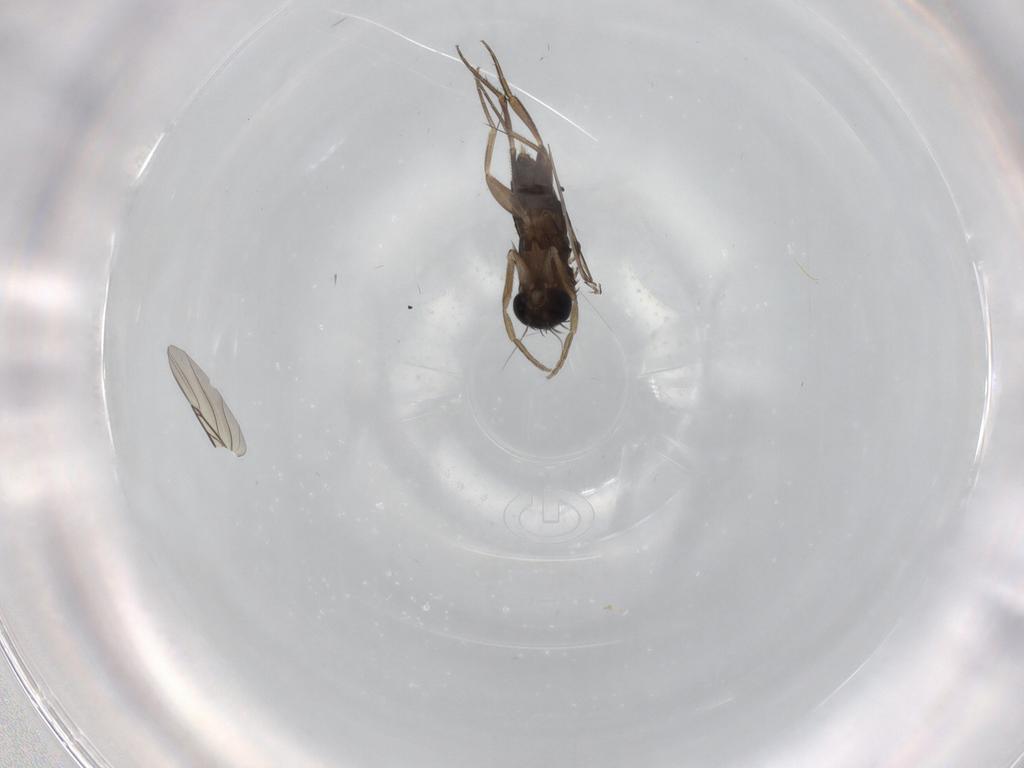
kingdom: Animalia
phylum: Arthropoda
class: Insecta
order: Diptera
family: Phoridae
